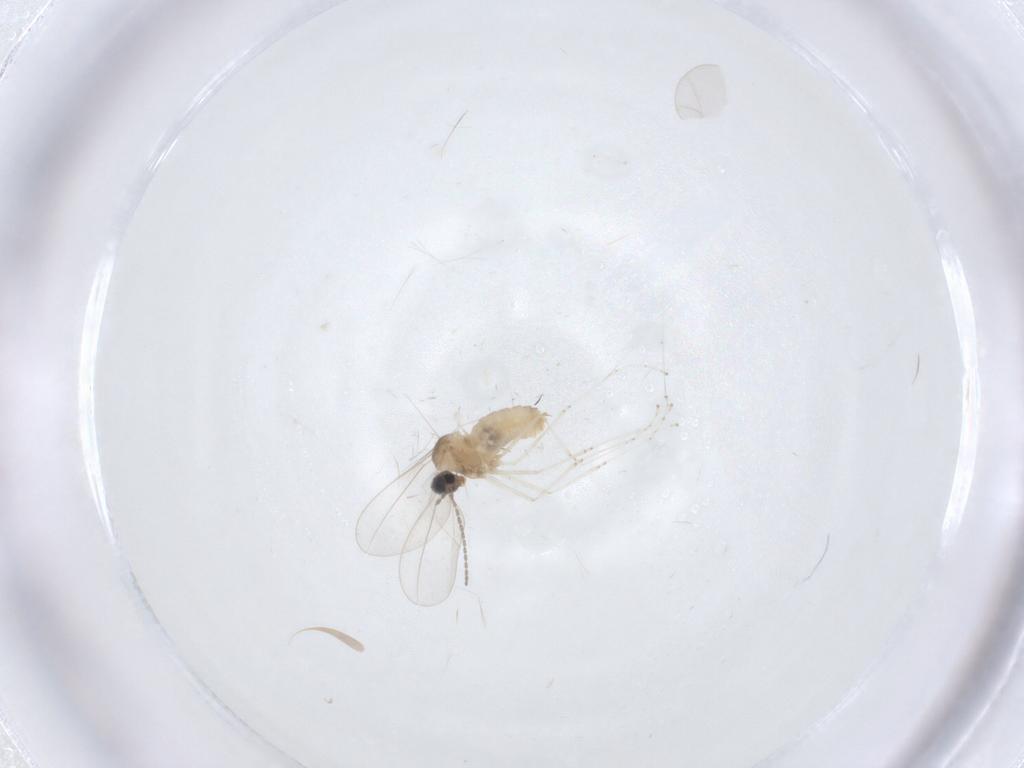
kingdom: Animalia
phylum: Arthropoda
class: Insecta
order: Diptera
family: Cecidomyiidae
